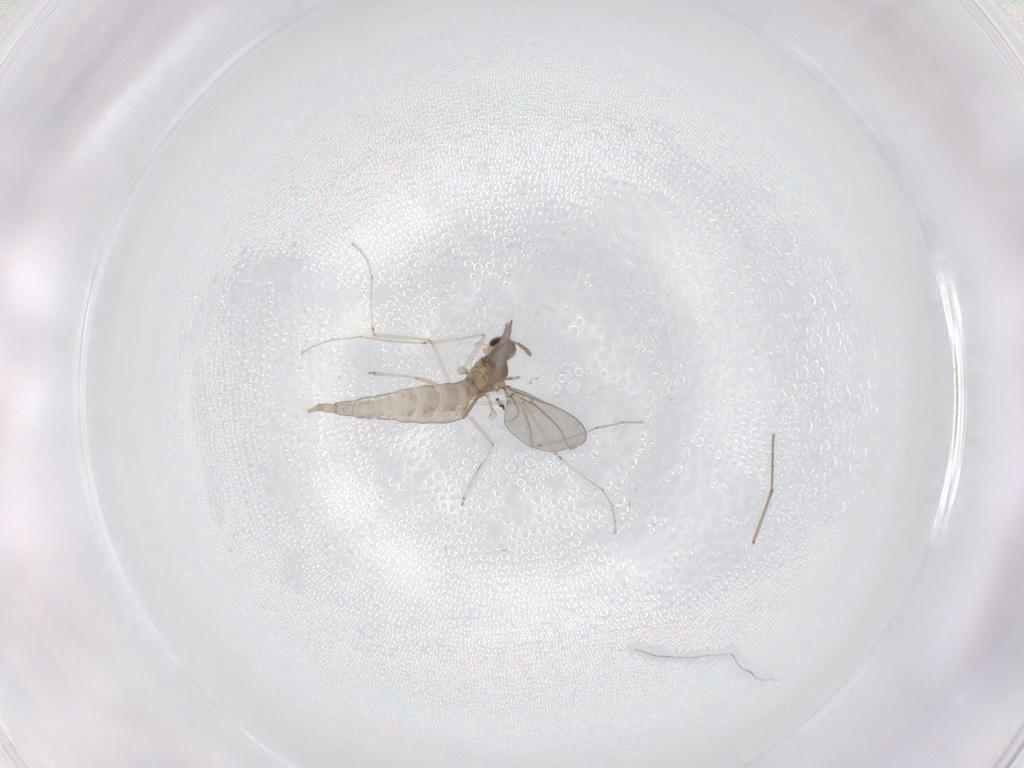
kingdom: Animalia
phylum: Arthropoda
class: Insecta
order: Diptera
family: Cecidomyiidae
